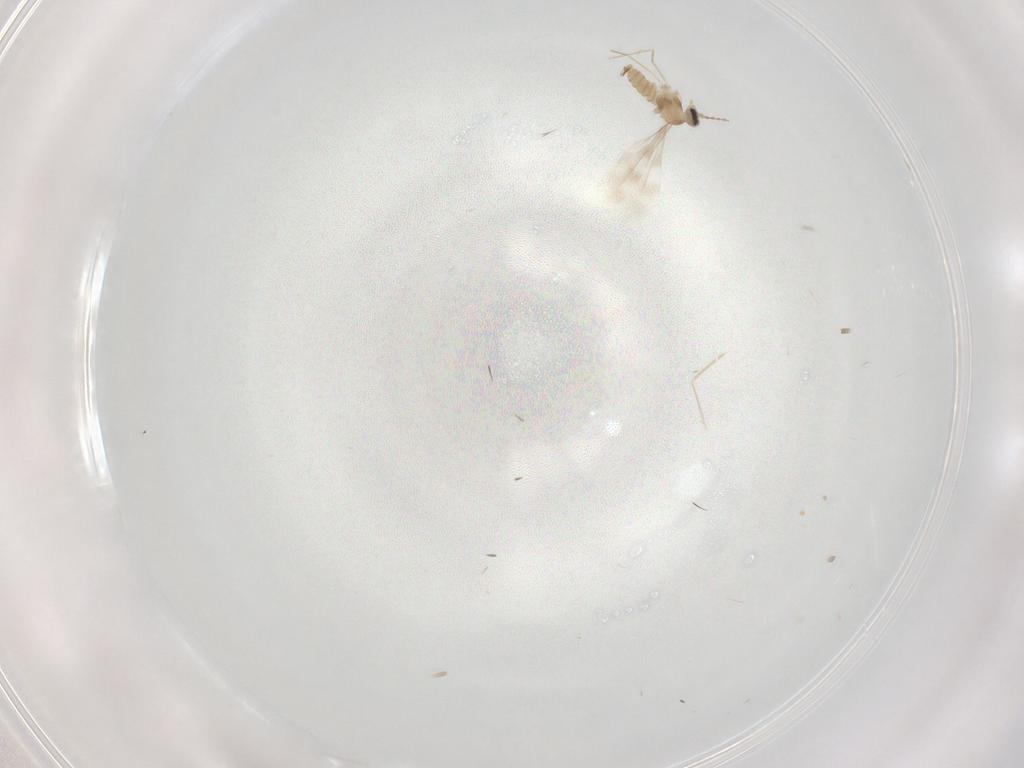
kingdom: Animalia
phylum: Arthropoda
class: Insecta
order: Diptera
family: Cecidomyiidae
